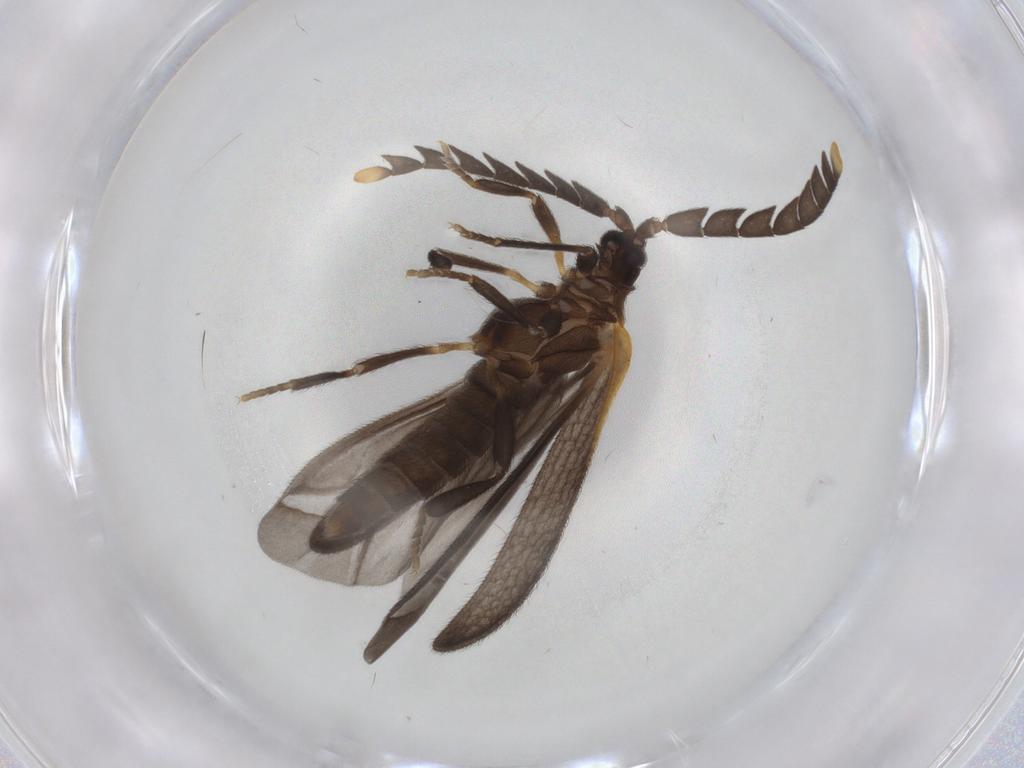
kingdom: Animalia
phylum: Arthropoda
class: Insecta
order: Coleoptera
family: Lycidae
